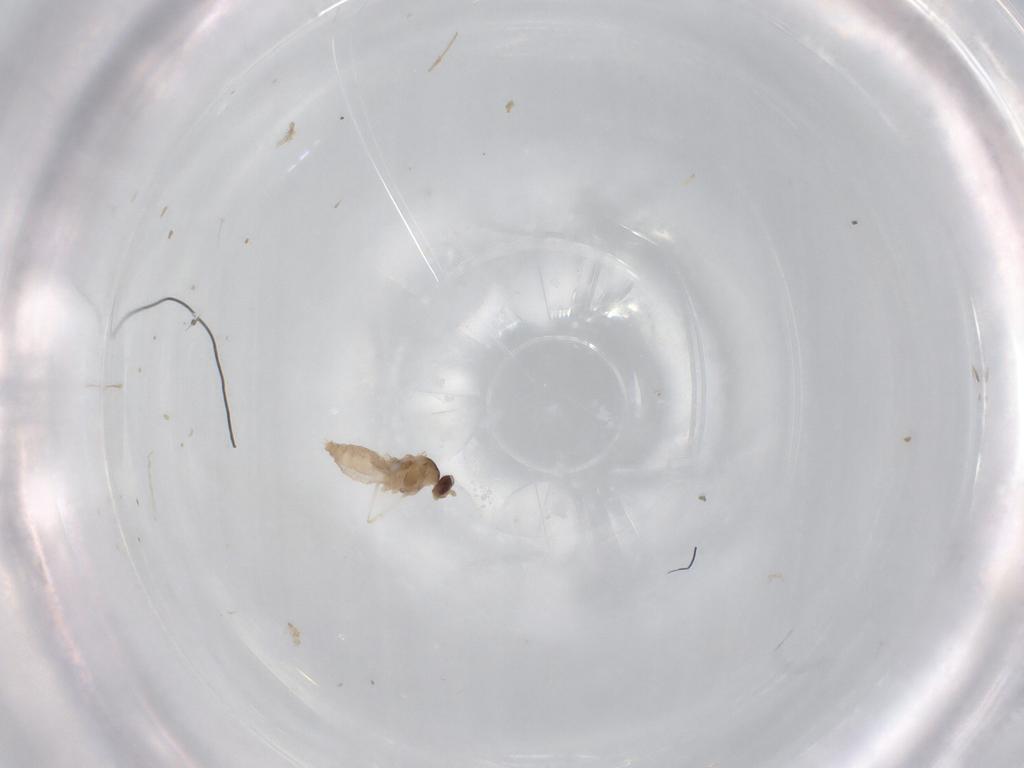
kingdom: Animalia
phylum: Arthropoda
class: Insecta
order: Diptera
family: Cecidomyiidae
